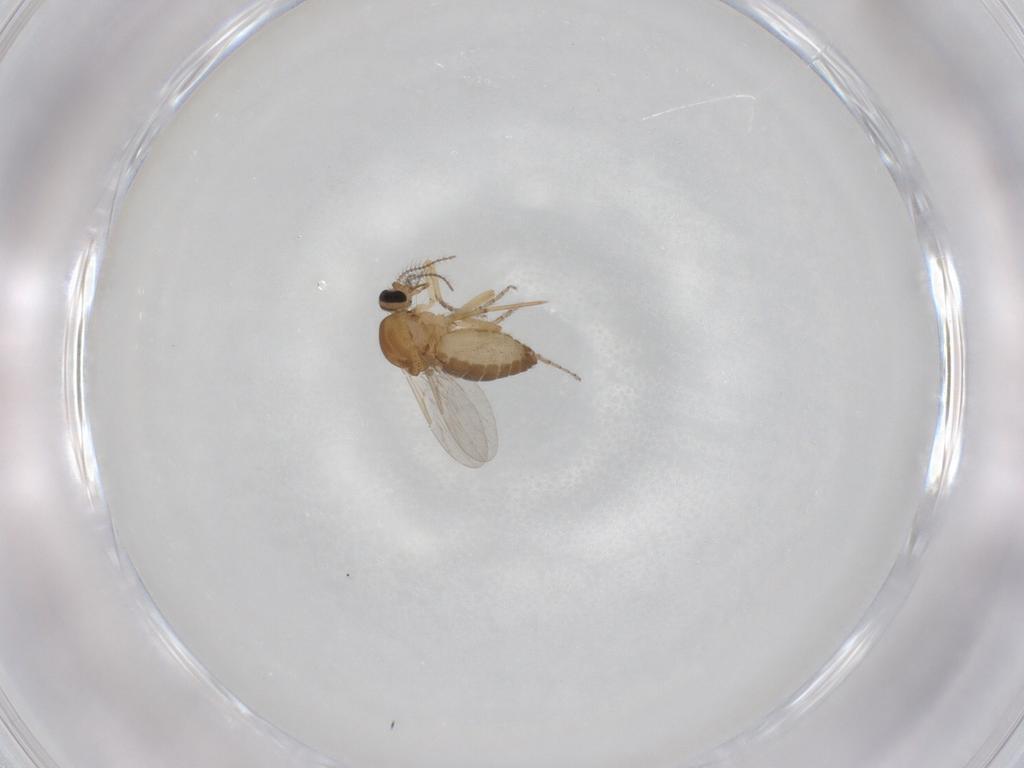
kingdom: Animalia
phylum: Arthropoda
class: Insecta
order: Diptera
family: Ceratopogonidae
